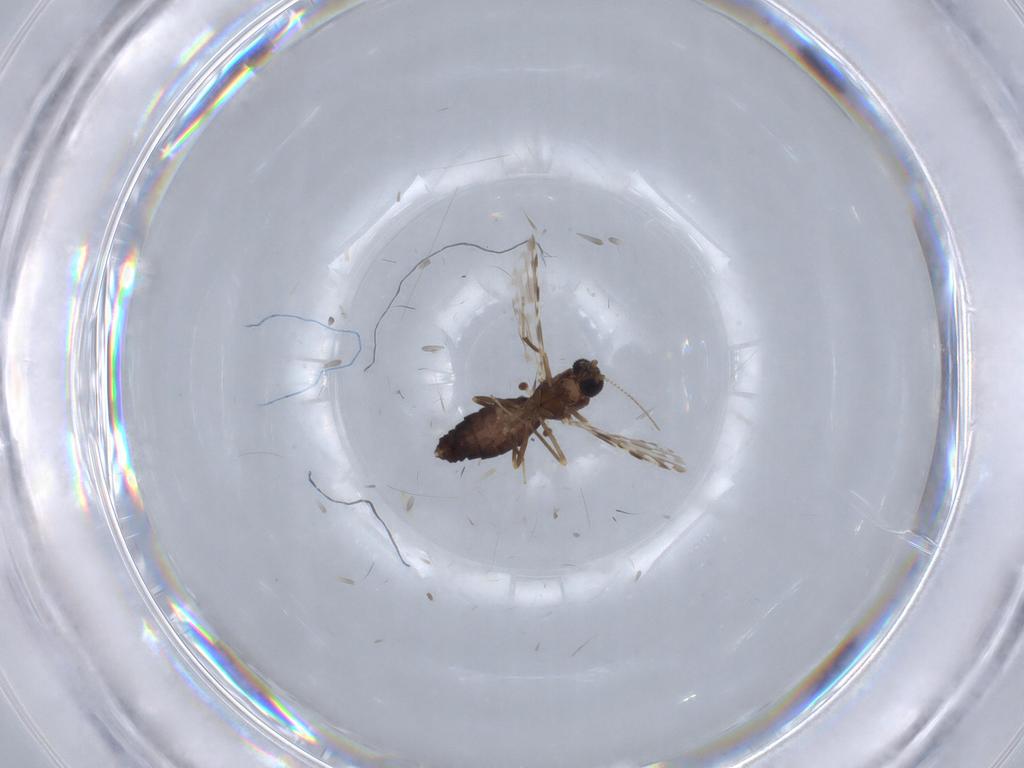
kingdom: Animalia
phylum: Arthropoda
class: Insecta
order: Diptera
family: Ceratopogonidae
